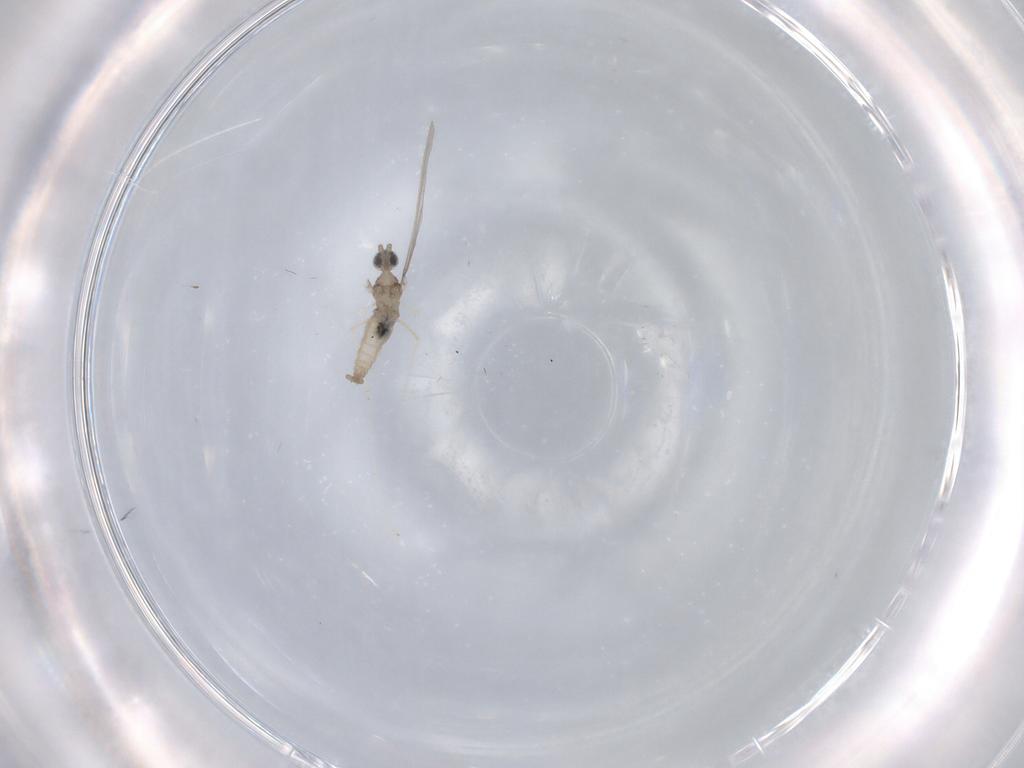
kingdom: Animalia
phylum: Arthropoda
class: Insecta
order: Diptera
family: Cecidomyiidae
